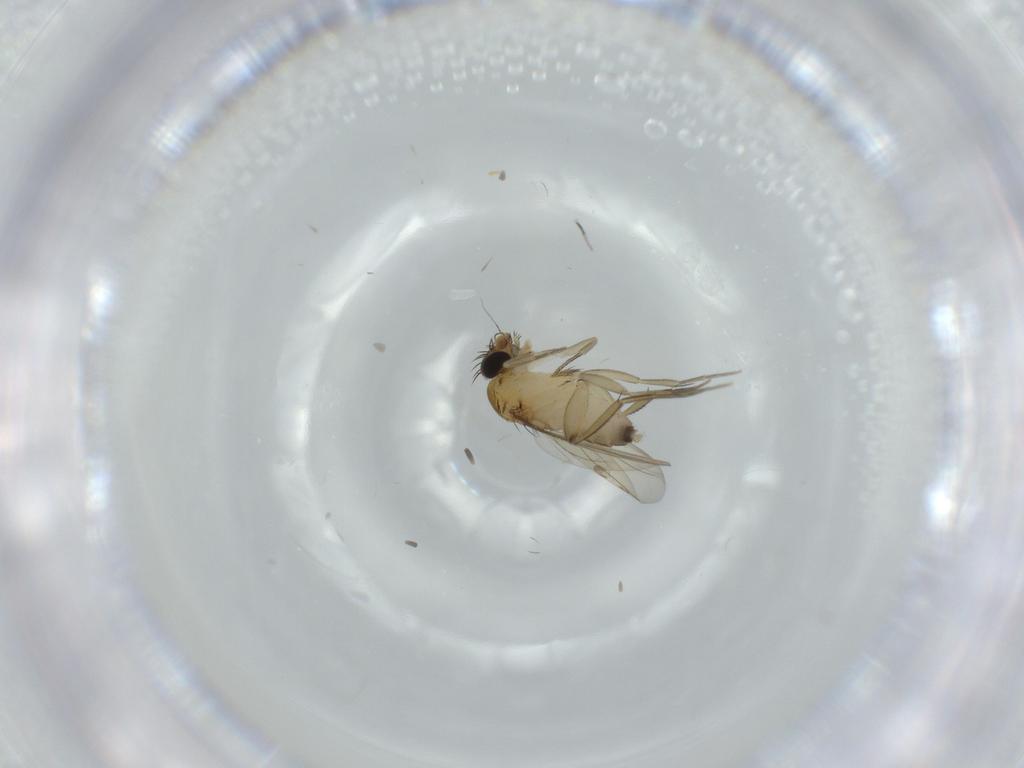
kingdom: Animalia
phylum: Arthropoda
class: Insecta
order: Diptera
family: Phoridae
